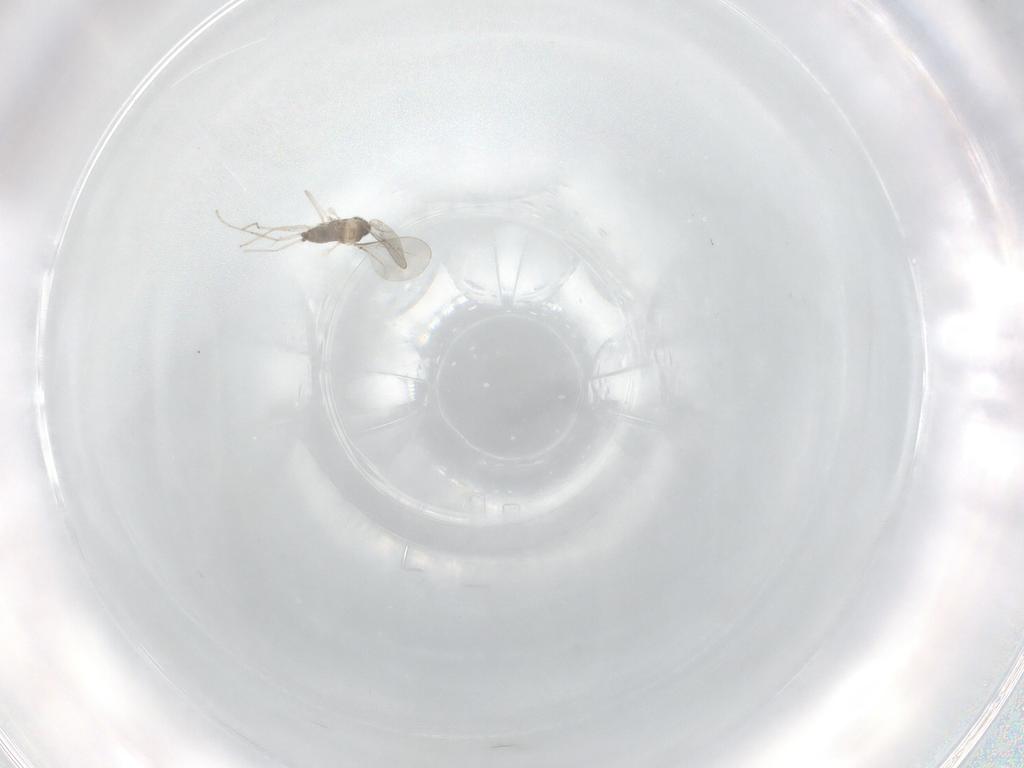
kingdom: Animalia
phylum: Arthropoda
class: Insecta
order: Diptera
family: Cecidomyiidae
